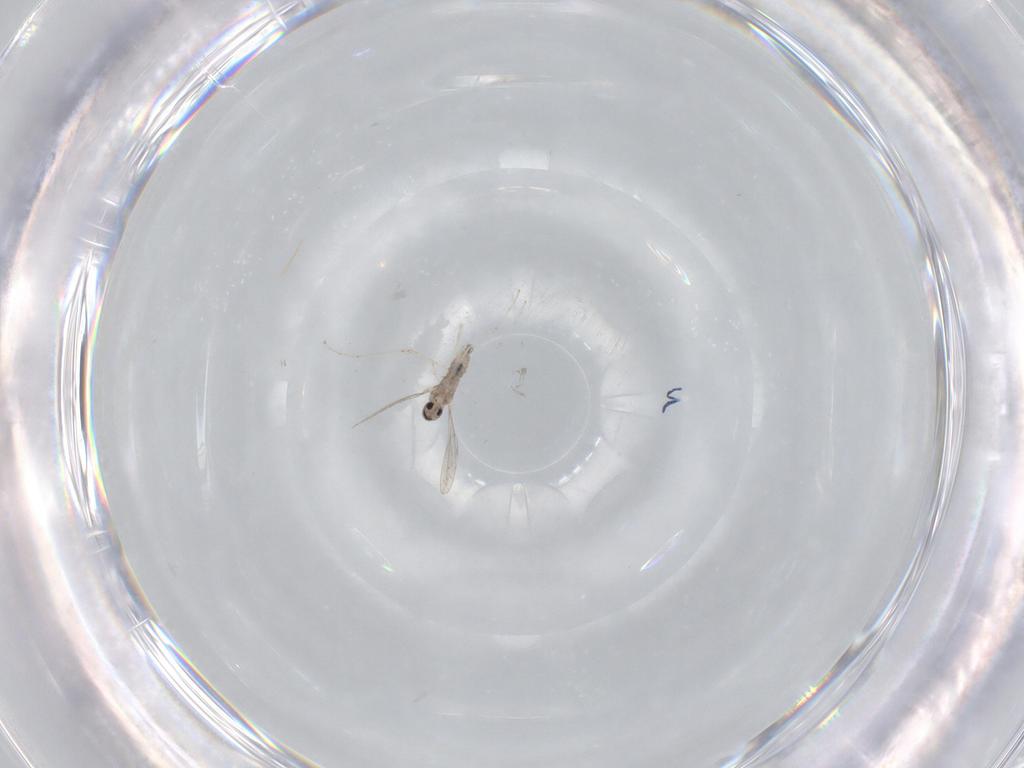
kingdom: Animalia
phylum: Arthropoda
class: Insecta
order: Diptera
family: Cecidomyiidae
